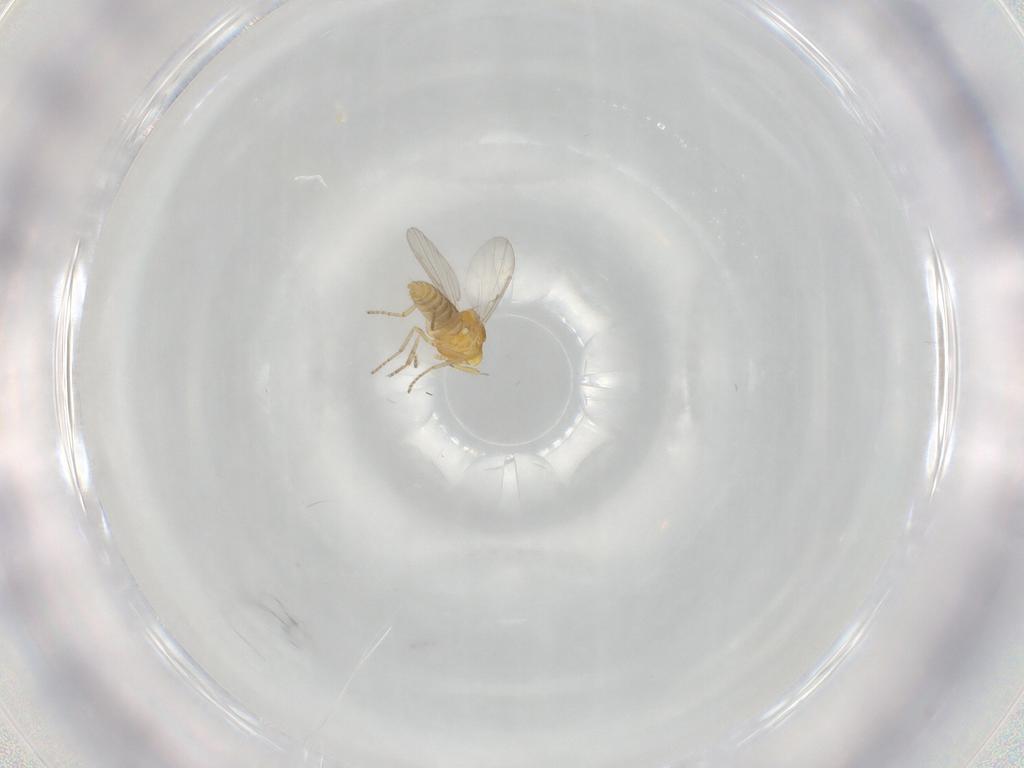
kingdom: Animalia
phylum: Arthropoda
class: Insecta
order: Diptera
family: Ceratopogonidae
